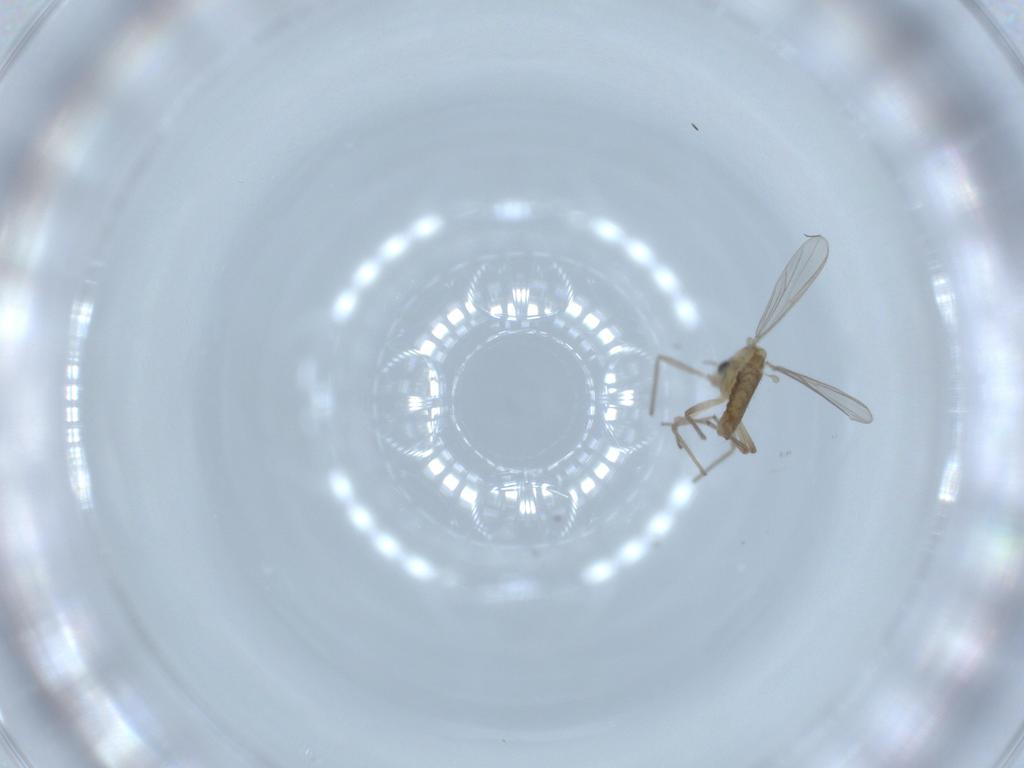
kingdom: Animalia
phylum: Arthropoda
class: Insecta
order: Diptera
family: Chironomidae
